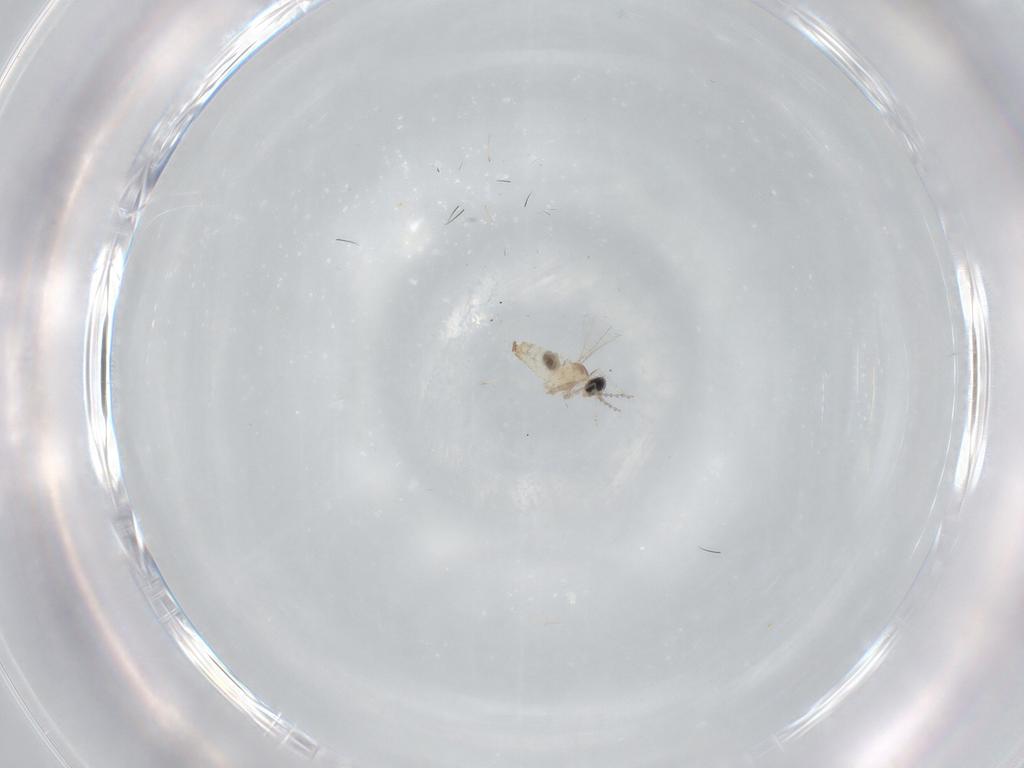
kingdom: Animalia
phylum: Arthropoda
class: Insecta
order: Diptera
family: Cecidomyiidae
